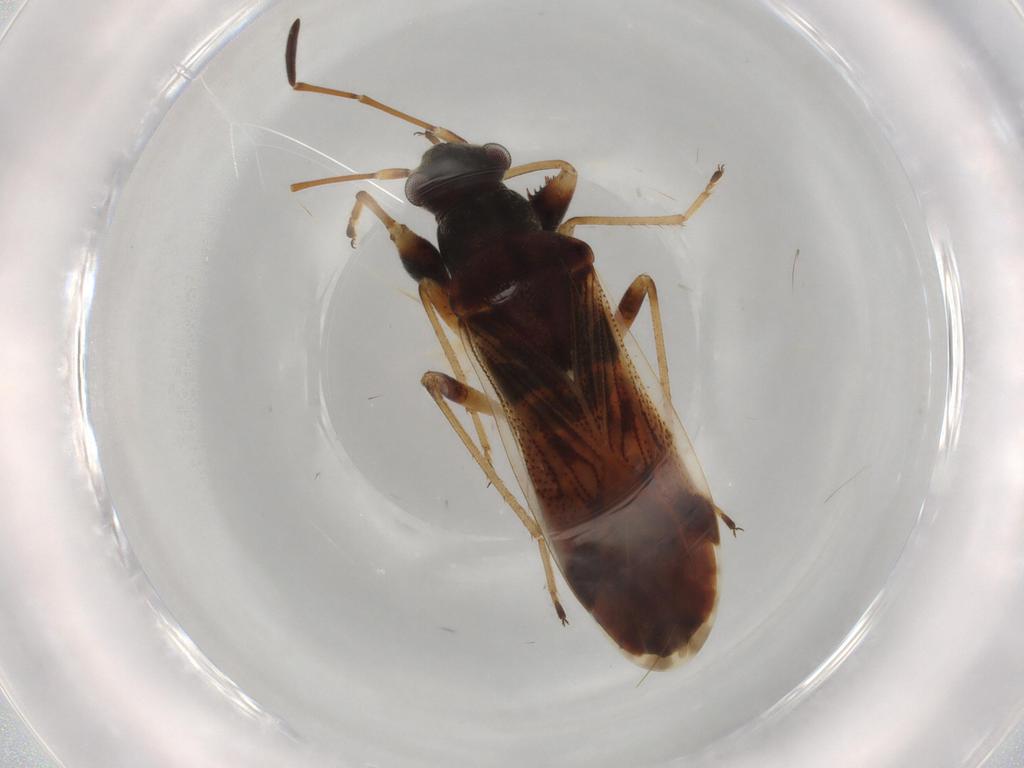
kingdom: Animalia
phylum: Arthropoda
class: Insecta
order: Hemiptera
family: Rhyparochromidae
